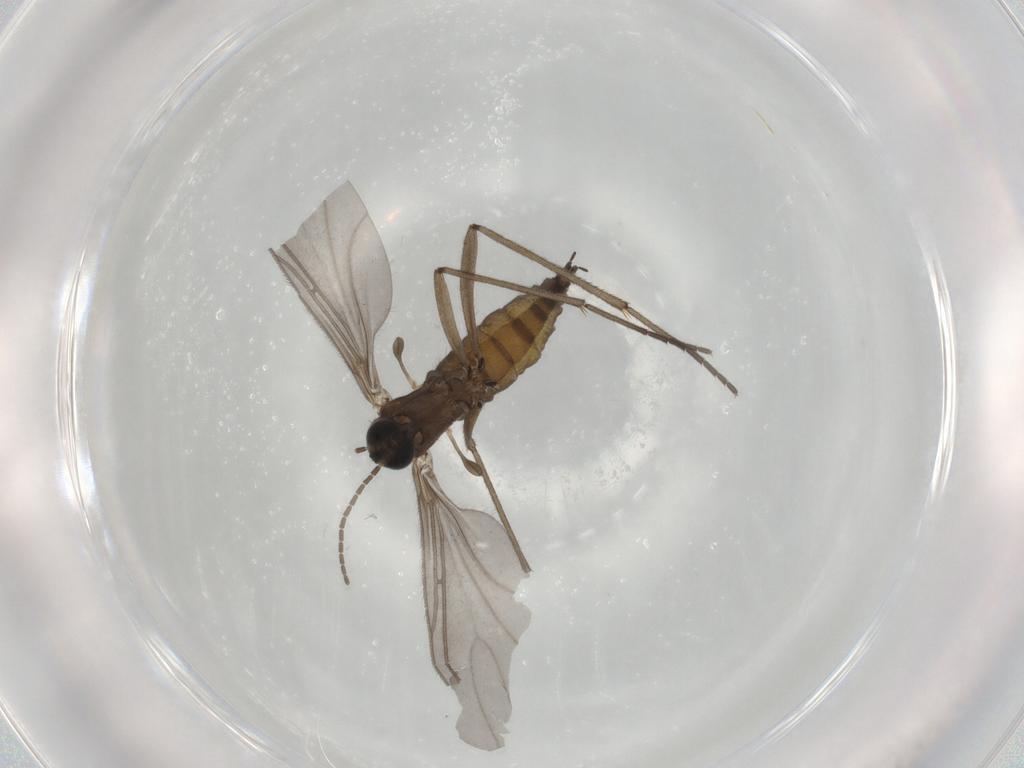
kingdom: Animalia
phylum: Arthropoda
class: Insecta
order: Diptera
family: Sciaridae
